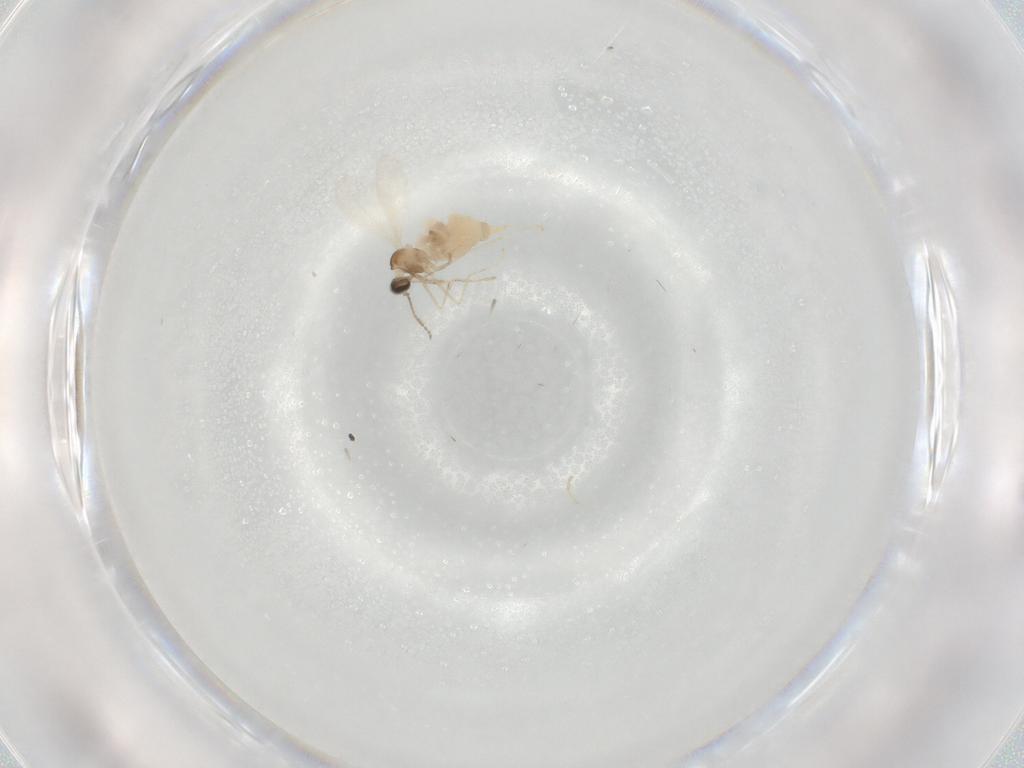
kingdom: Animalia
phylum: Arthropoda
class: Insecta
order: Diptera
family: Cecidomyiidae
